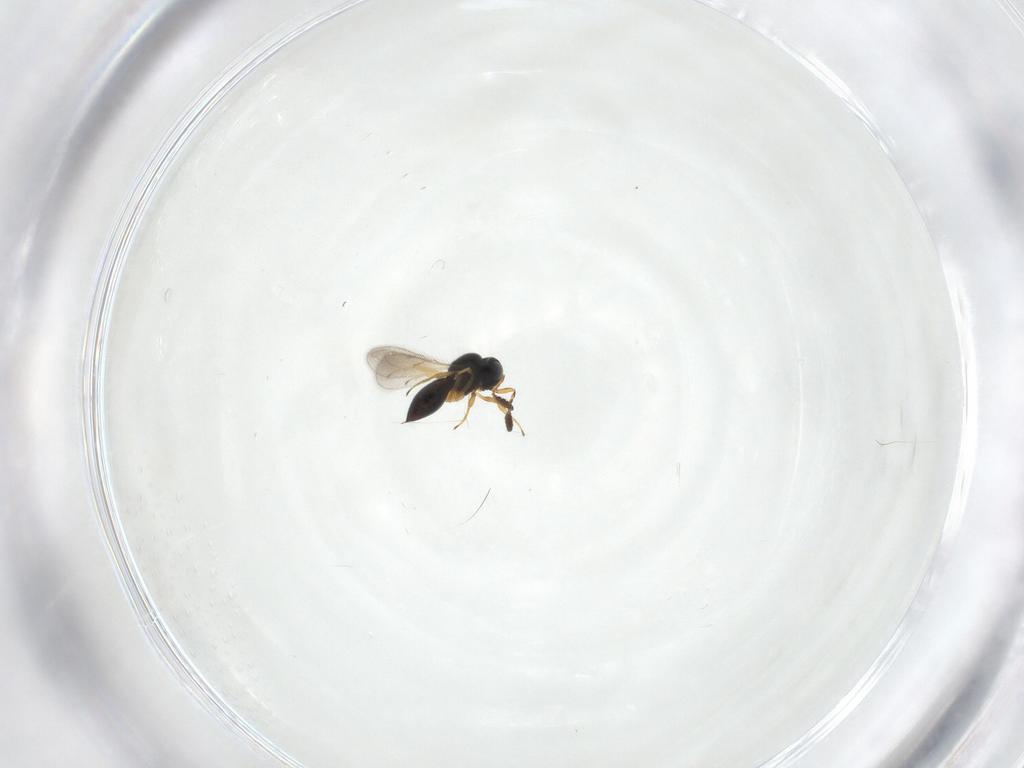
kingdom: Animalia
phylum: Arthropoda
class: Insecta
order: Hymenoptera
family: Scelionidae
